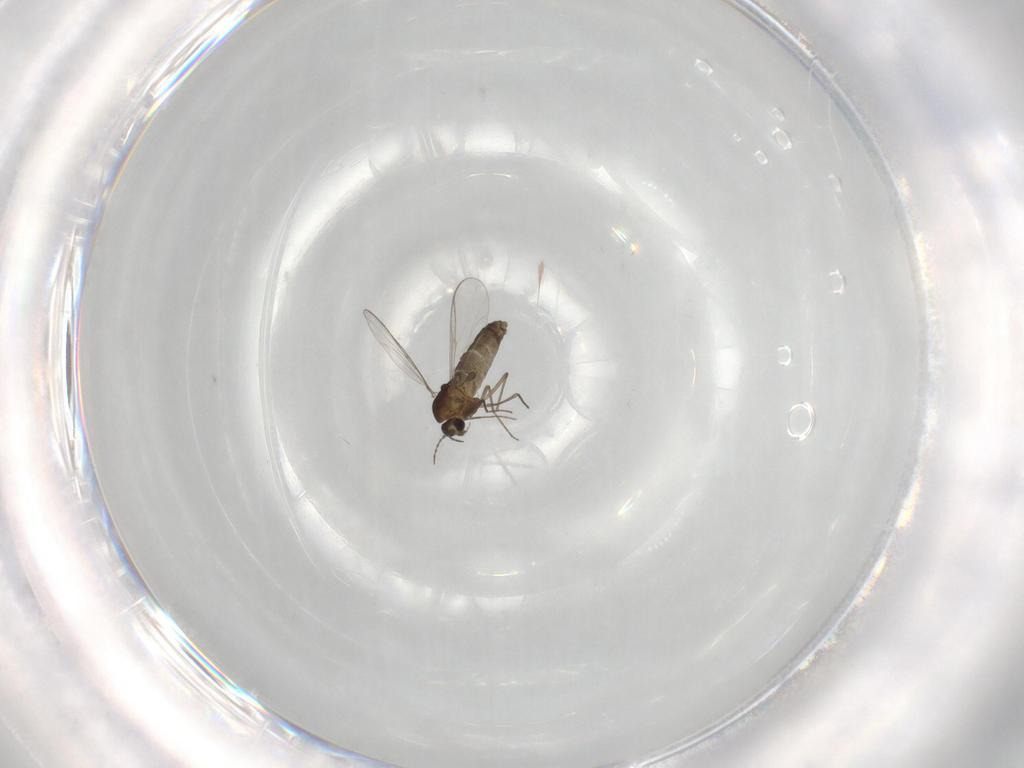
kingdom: Animalia
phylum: Arthropoda
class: Insecta
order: Diptera
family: Chironomidae
